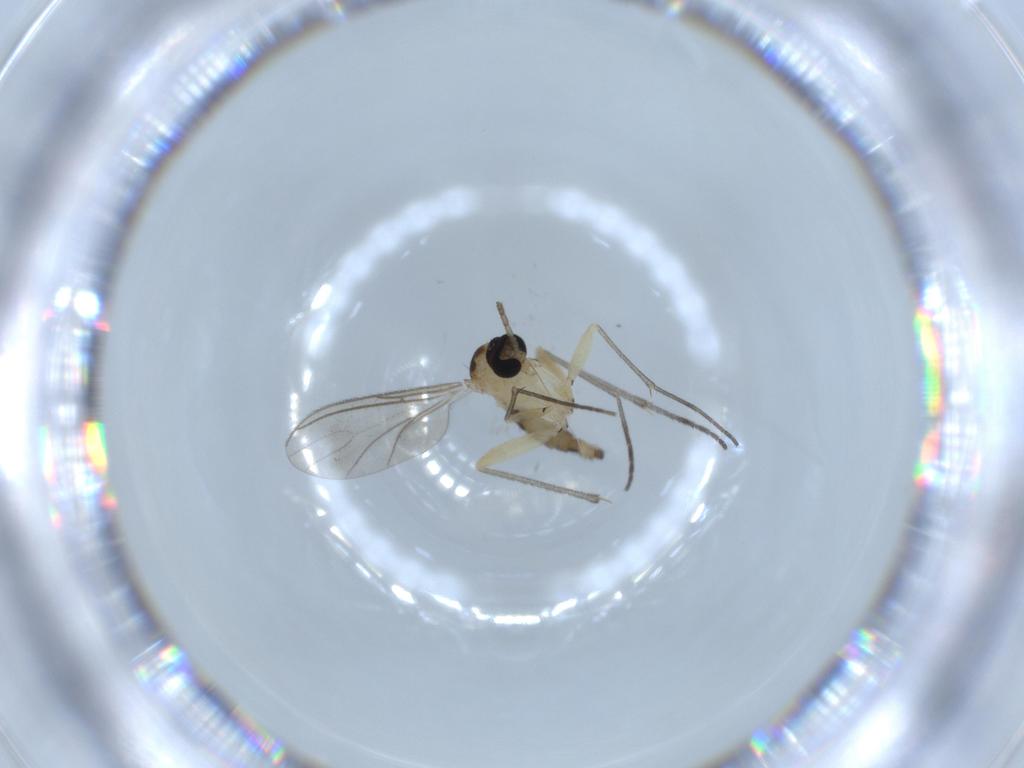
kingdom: Animalia
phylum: Arthropoda
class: Insecta
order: Diptera
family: Sciaridae
